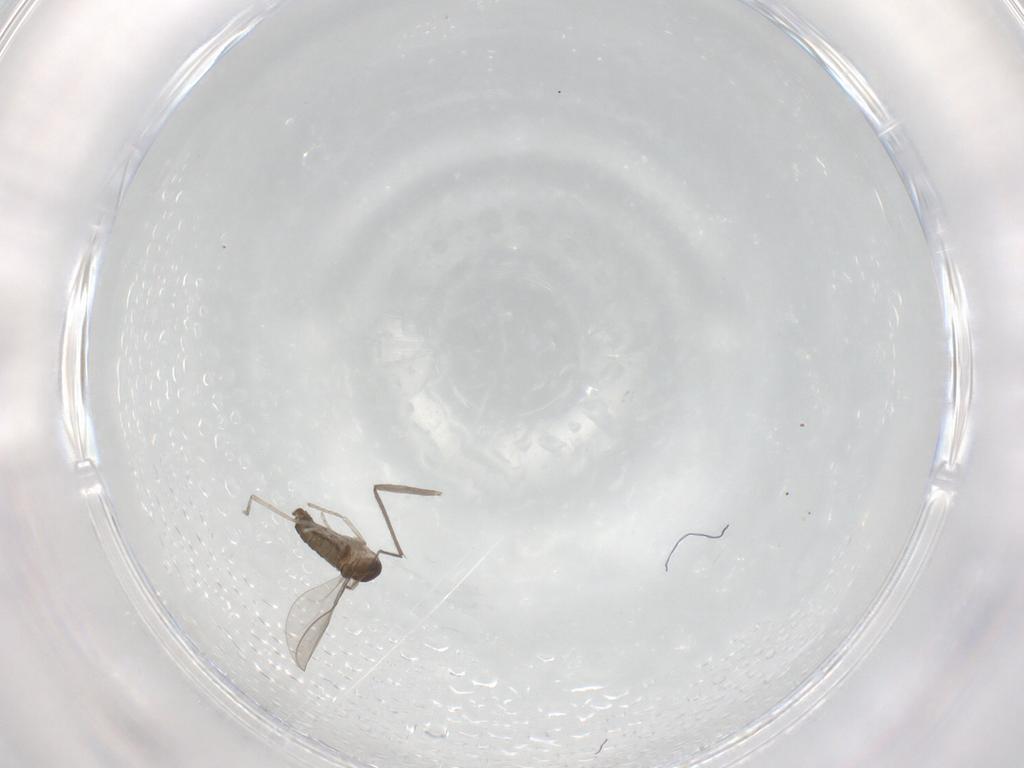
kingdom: Animalia
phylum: Arthropoda
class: Insecta
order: Diptera
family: Chironomidae
